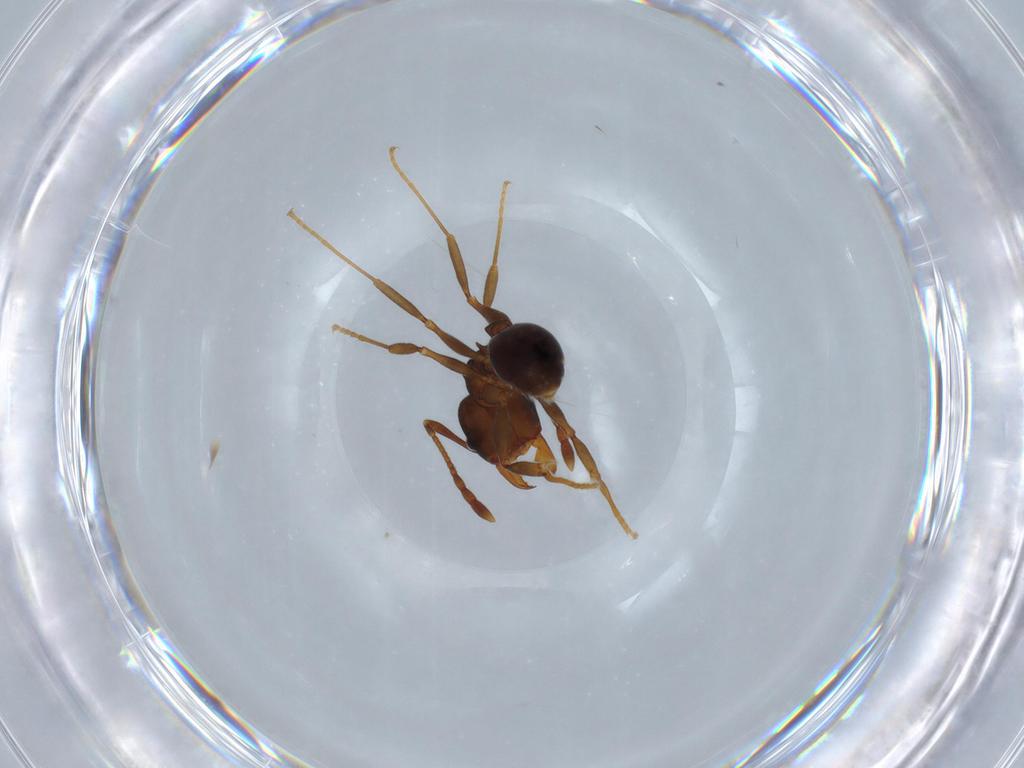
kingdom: Animalia
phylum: Arthropoda
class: Insecta
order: Hymenoptera
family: Formicidae
